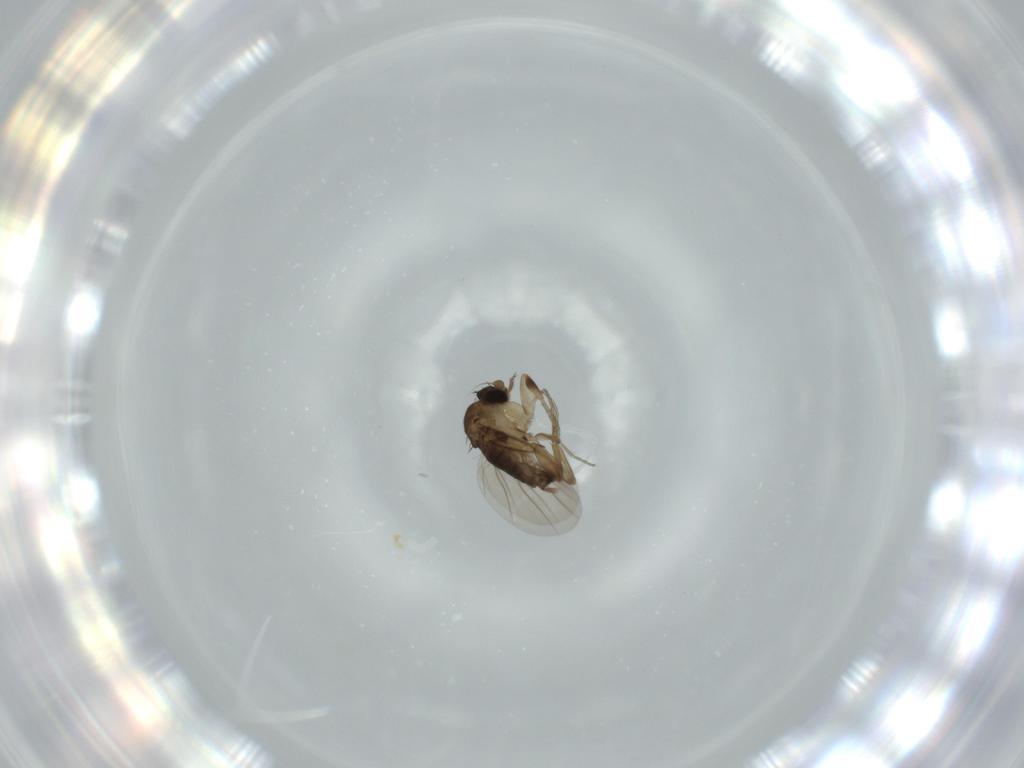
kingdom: Animalia
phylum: Arthropoda
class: Insecta
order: Diptera
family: Phoridae
